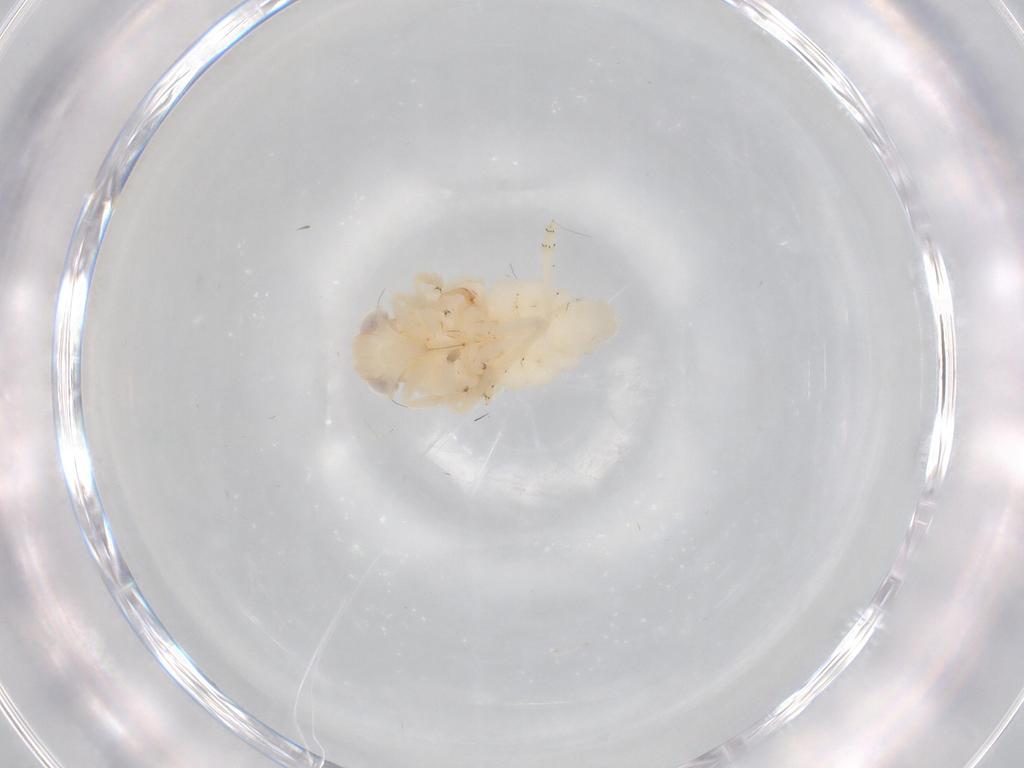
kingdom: Animalia
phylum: Arthropoda
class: Insecta
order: Hemiptera
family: Nogodinidae
